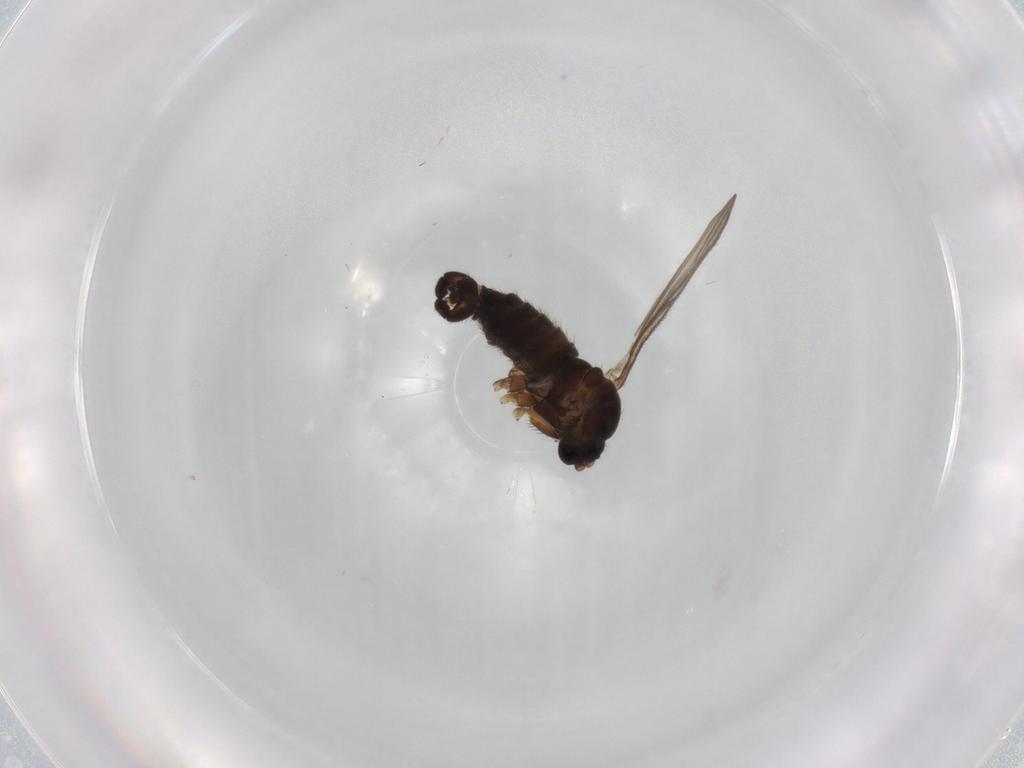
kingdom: Animalia
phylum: Arthropoda
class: Insecta
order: Diptera
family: Sciaridae
